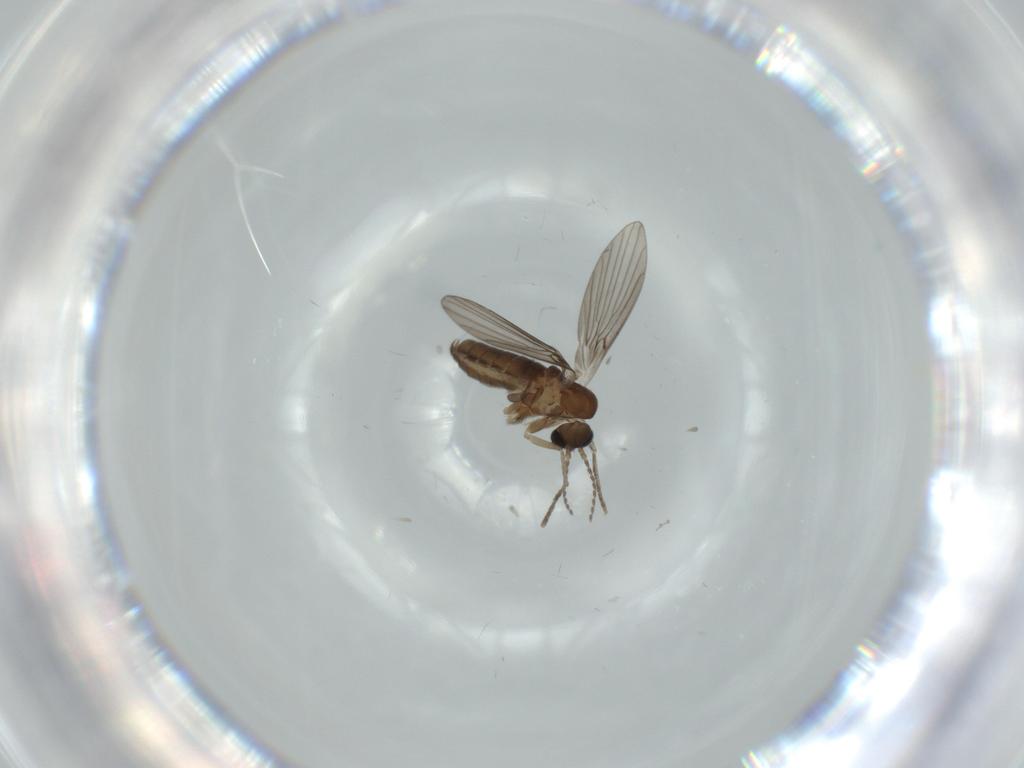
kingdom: Animalia
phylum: Arthropoda
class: Insecta
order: Diptera
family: Psychodidae
